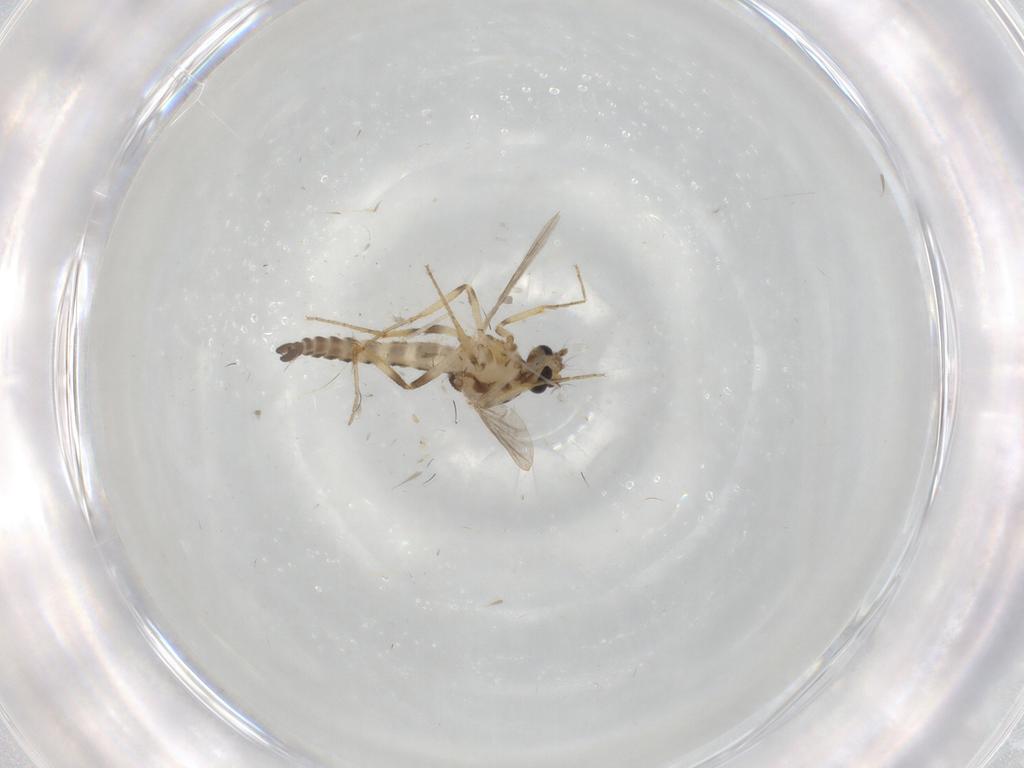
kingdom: Animalia
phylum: Arthropoda
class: Insecta
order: Diptera
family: Ceratopogonidae
